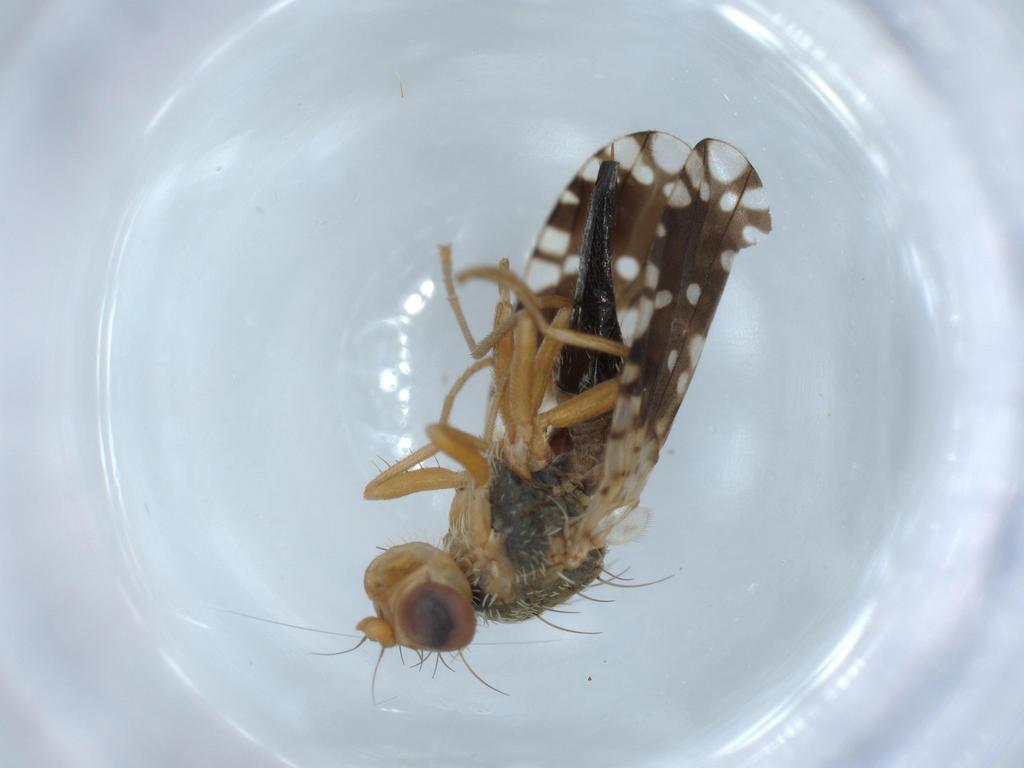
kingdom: Animalia
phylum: Arthropoda
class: Insecta
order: Diptera
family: Tephritidae
